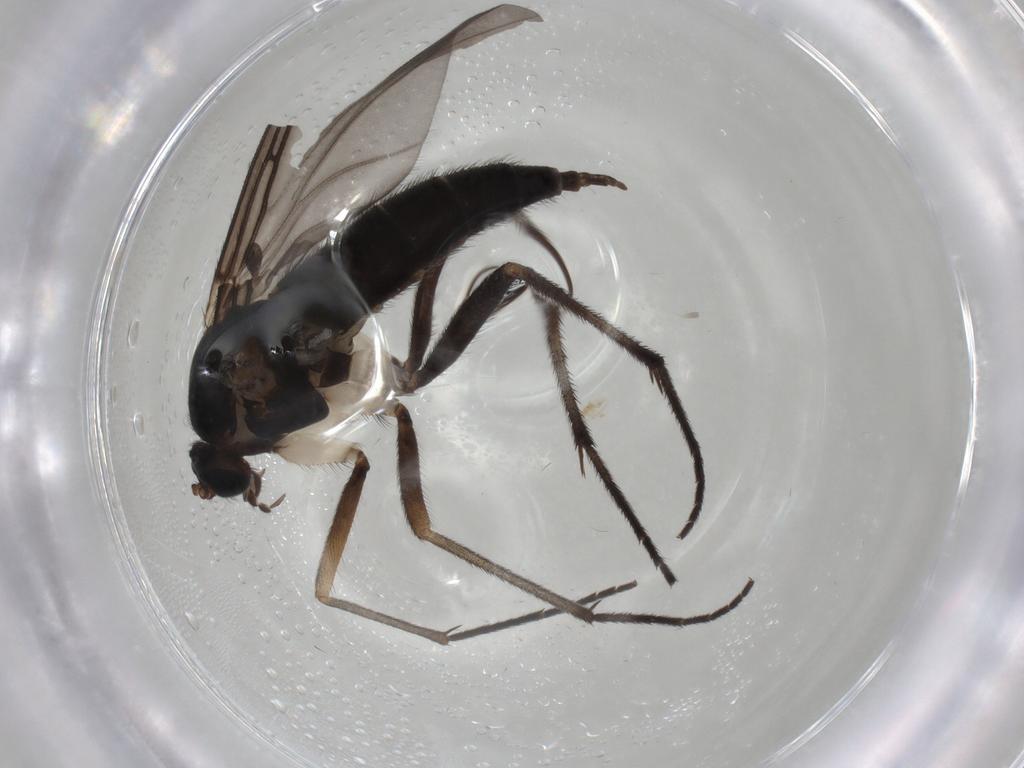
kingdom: Animalia
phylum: Arthropoda
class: Insecta
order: Diptera
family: Sciaridae
